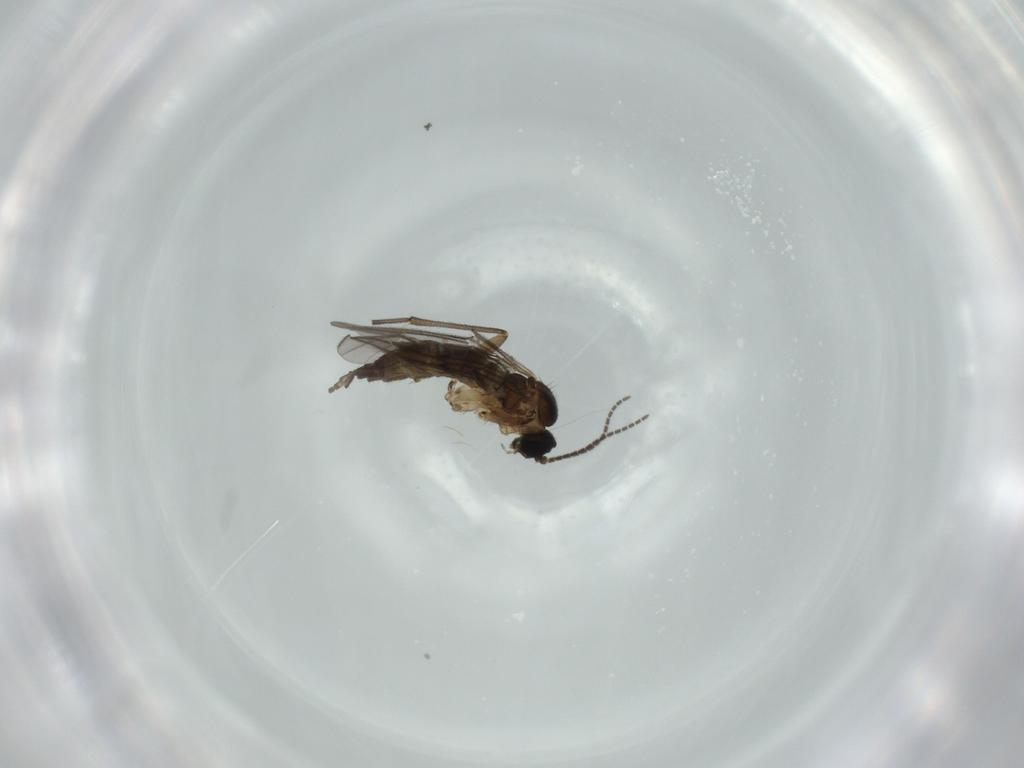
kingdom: Animalia
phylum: Arthropoda
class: Insecta
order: Diptera
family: Sciaridae
